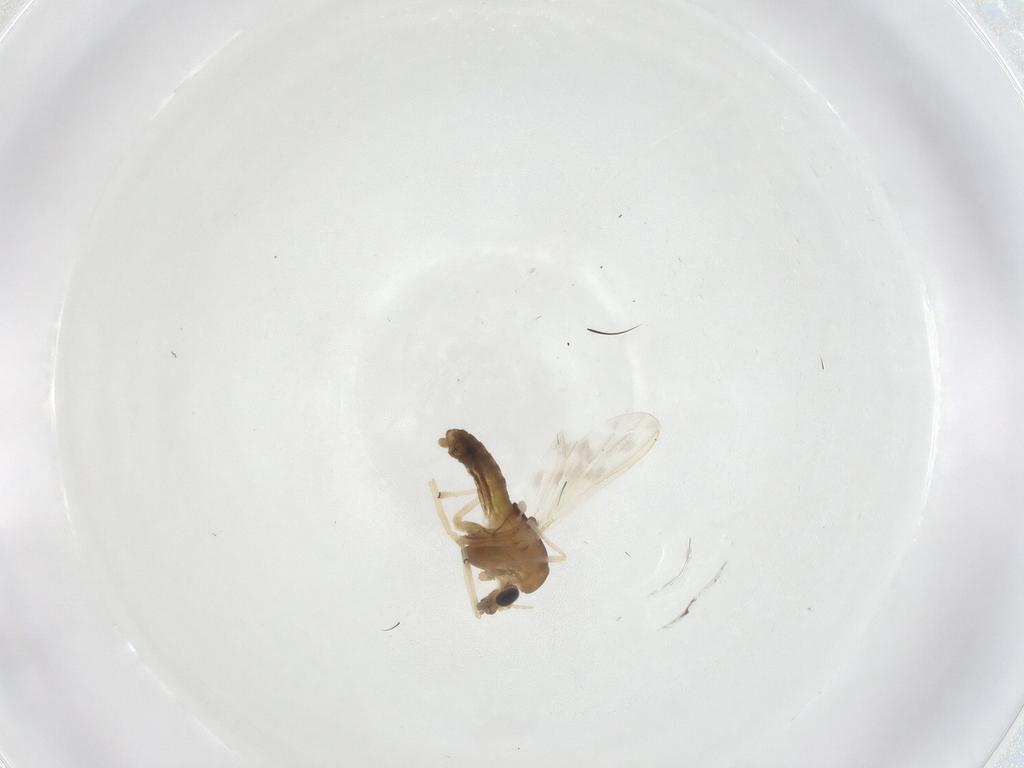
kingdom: Animalia
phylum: Arthropoda
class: Insecta
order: Diptera
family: Chironomidae
